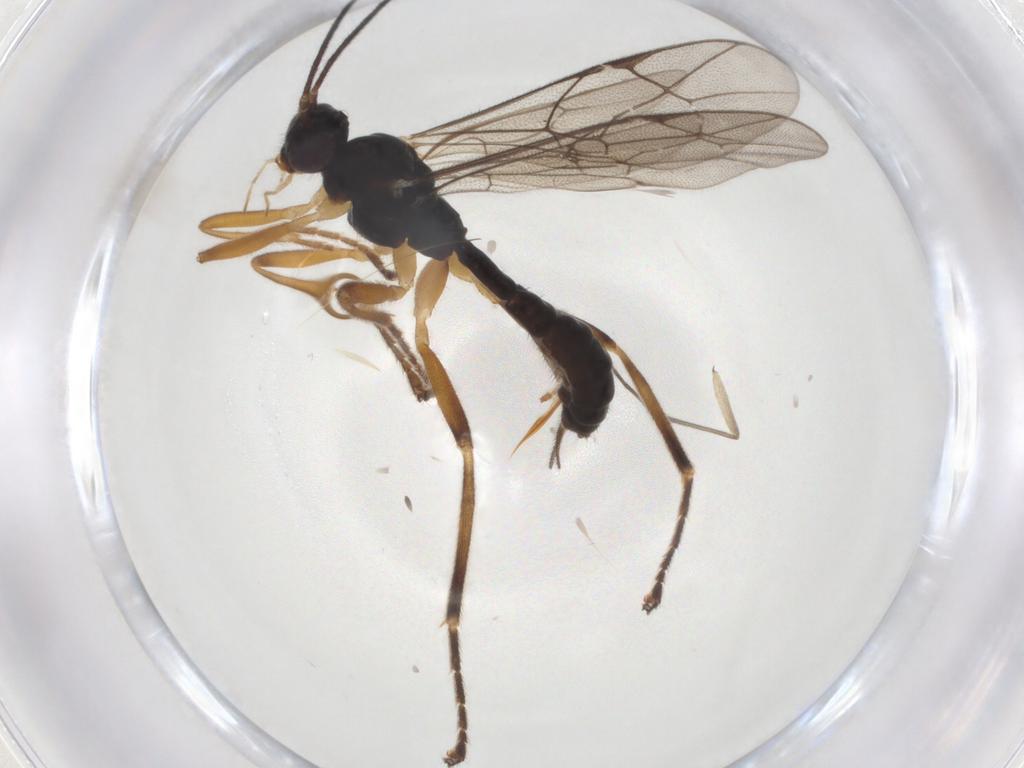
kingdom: Animalia
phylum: Arthropoda
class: Insecta
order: Hymenoptera
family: Ichneumonidae
